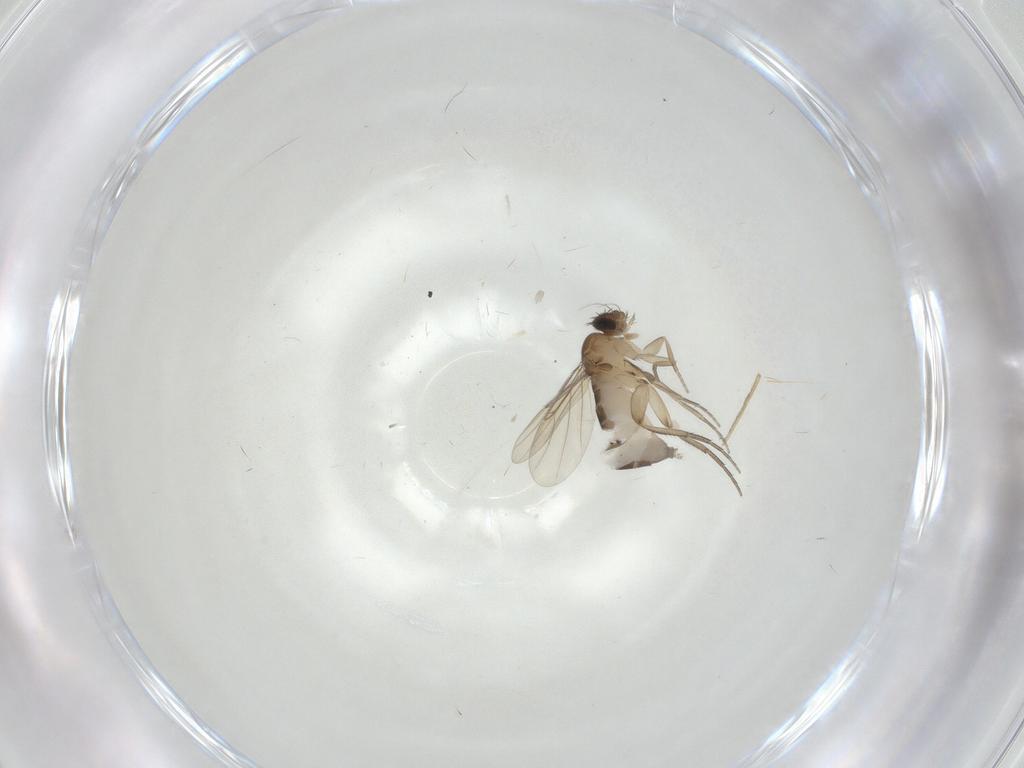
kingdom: Animalia
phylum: Arthropoda
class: Insecta
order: Diptera
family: Phoridae
